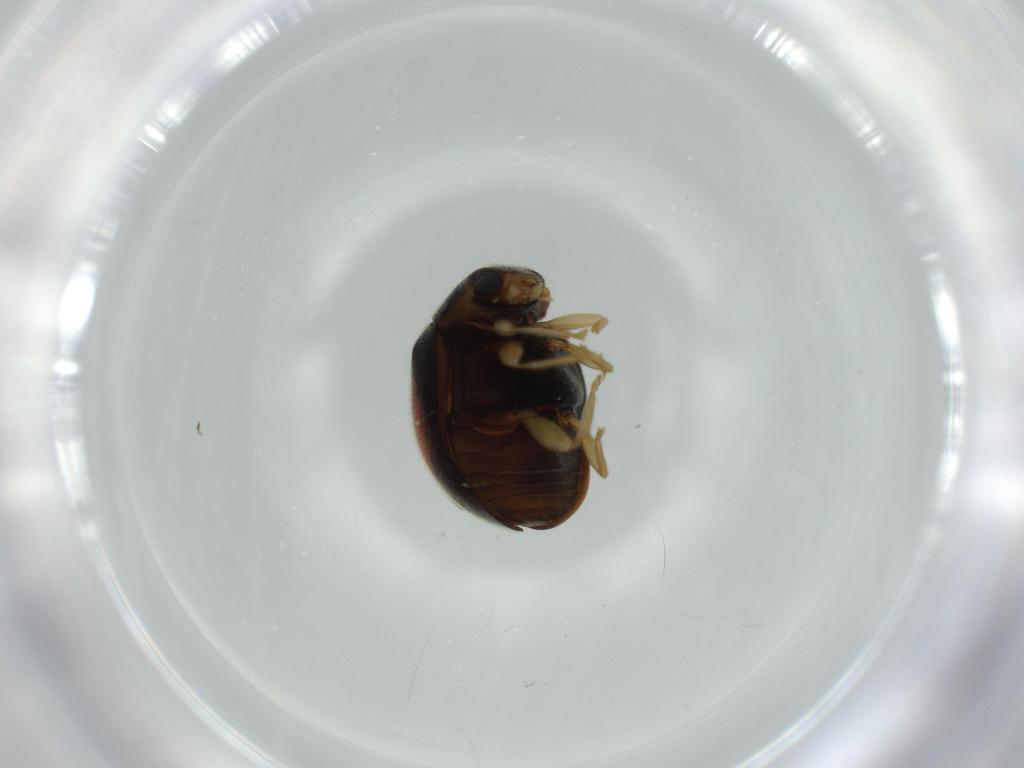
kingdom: Animalia
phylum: Arthropoda
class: Insecta
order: Coleoptera
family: Coccinellidae
